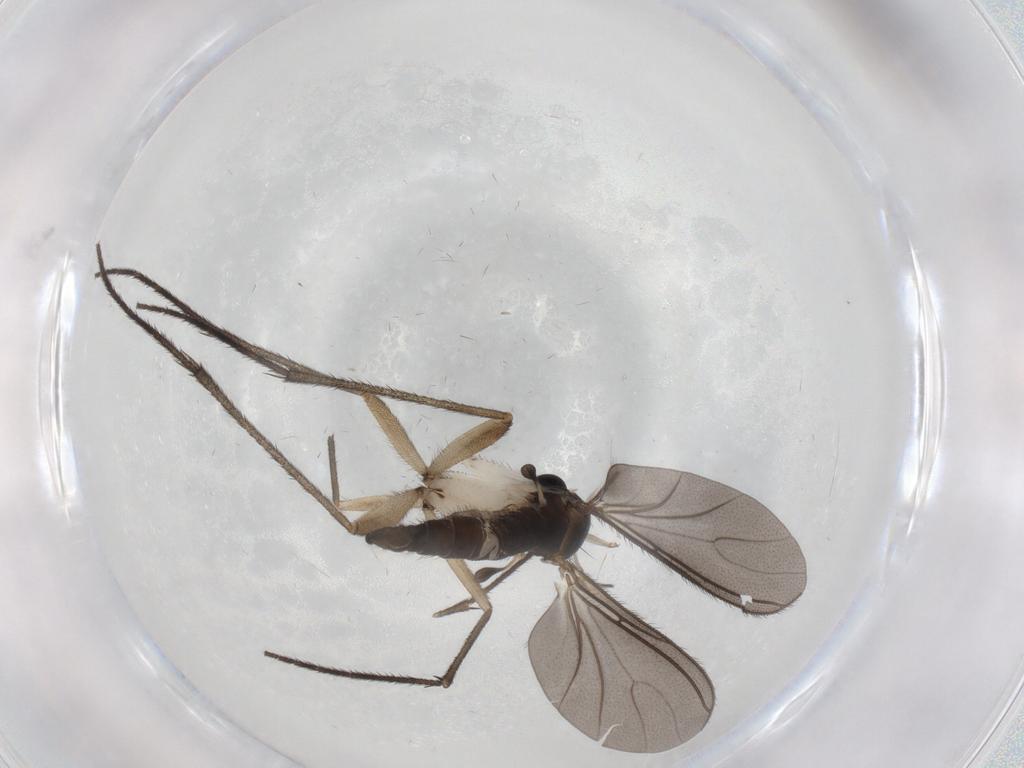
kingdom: Animalia
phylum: Arthropoda
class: Insecta
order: Diptera
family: Sciaridae
